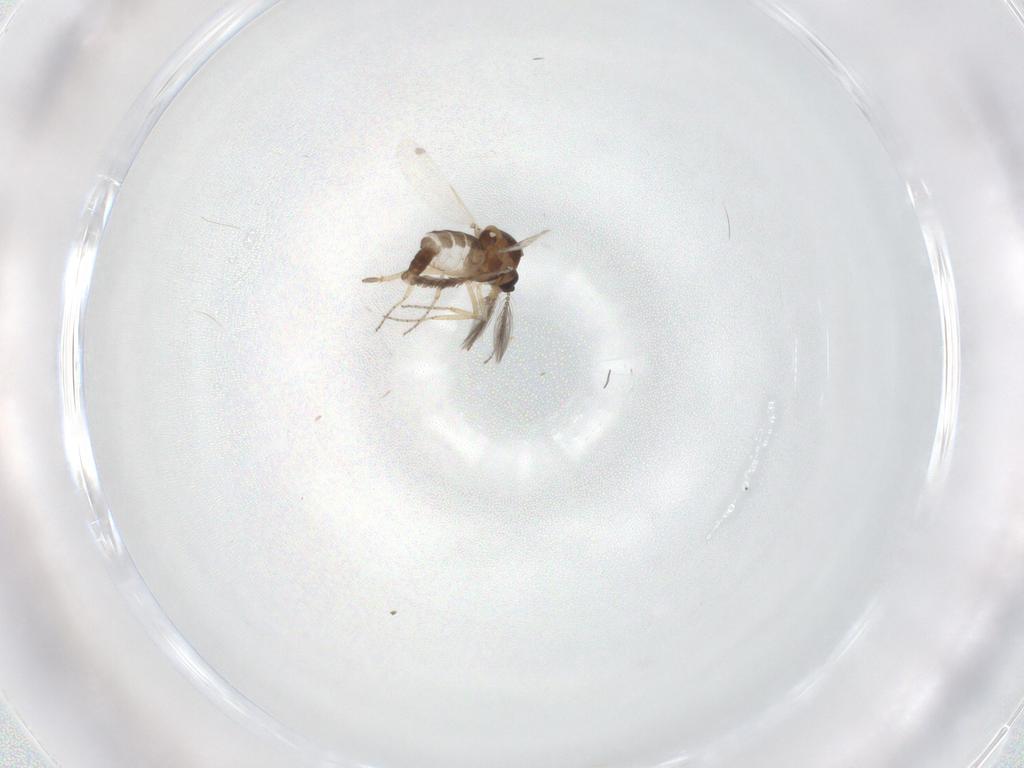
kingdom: Animalia
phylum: Arthropoda
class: Insecta
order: Diptera
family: Ceratopogonidae
